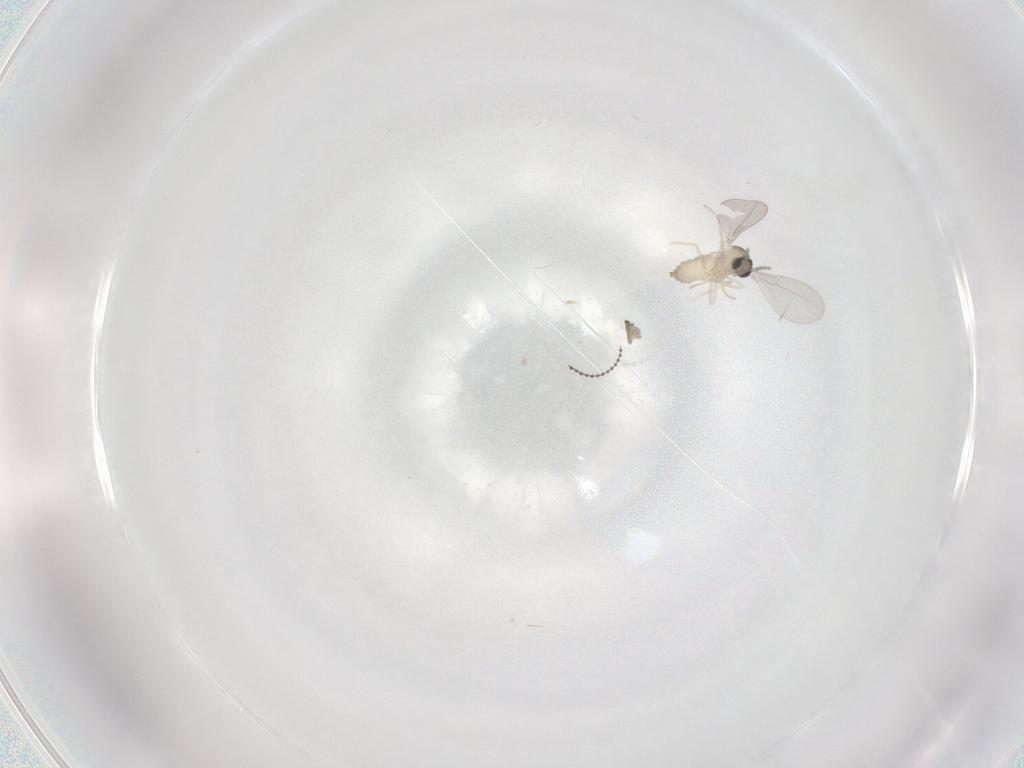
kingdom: Animalia
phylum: Arthropoda
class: Insecta
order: Diptera
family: Cecidomyiidae
